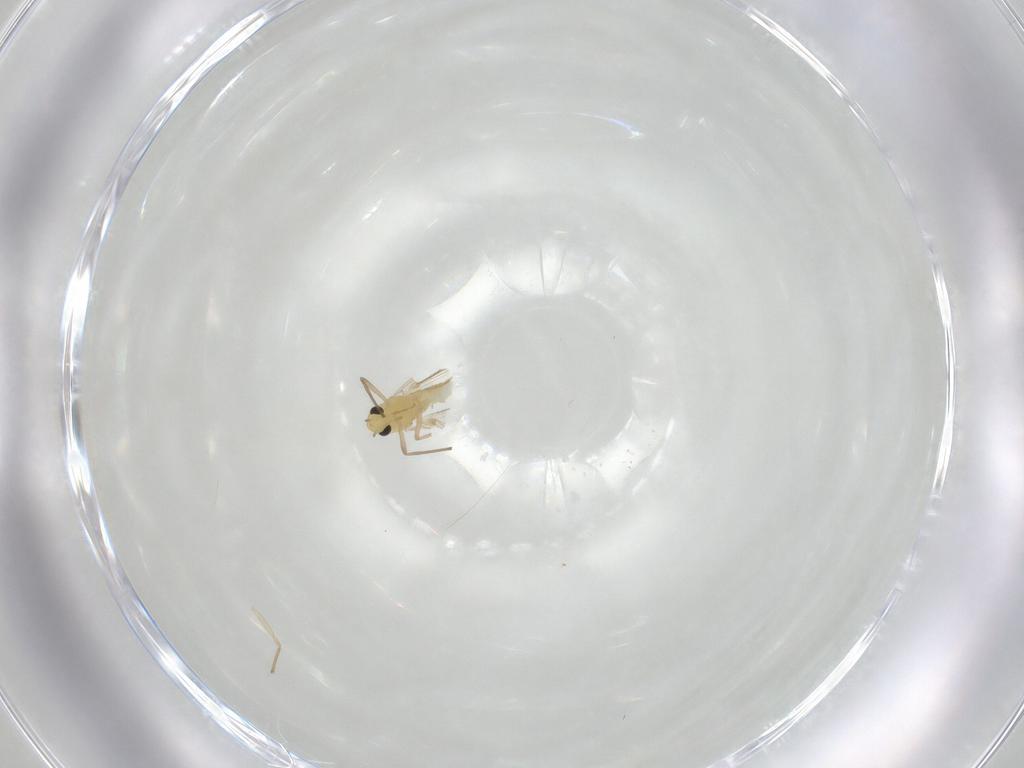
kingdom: Animalia
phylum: Arthropoda
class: Insecta
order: Diptera
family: Chironomidae
